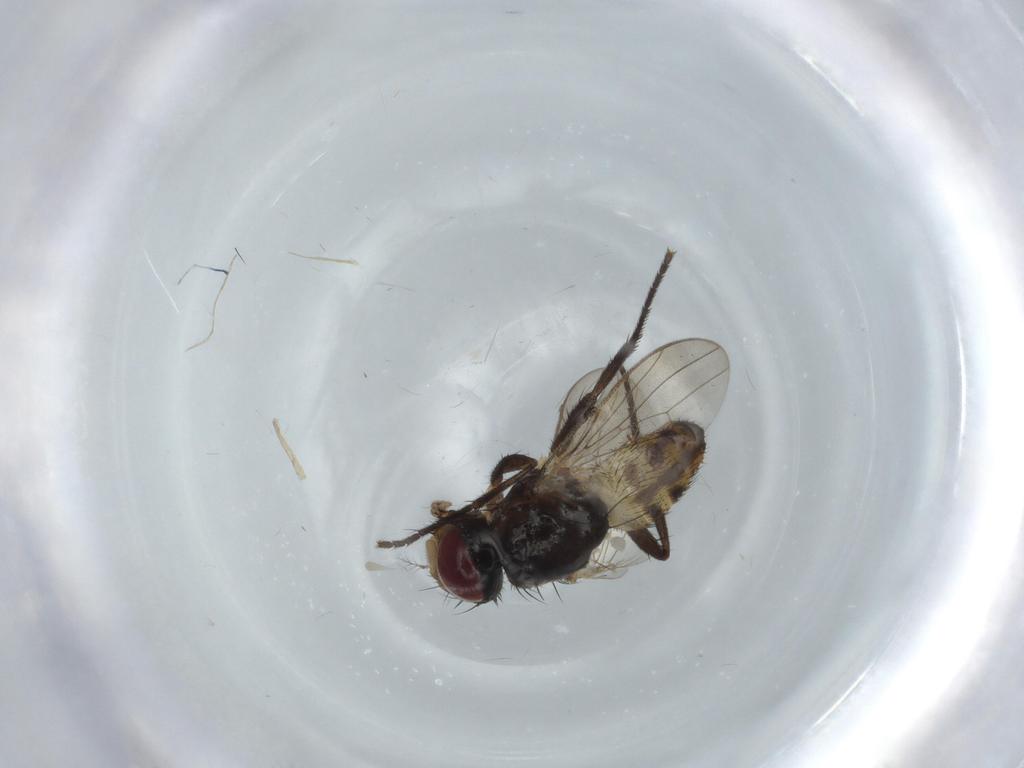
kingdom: Animalia
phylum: Arthropoda
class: Insecta
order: Diptera
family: Anthomyiidae
